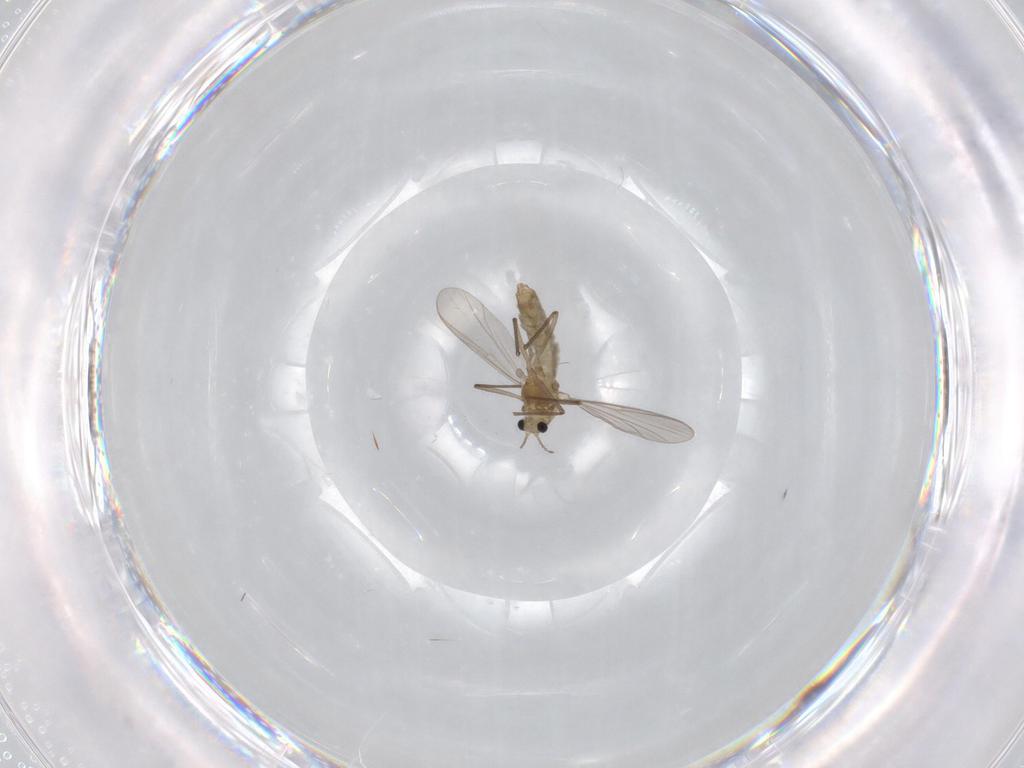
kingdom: Animalia
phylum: Arthropoda
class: Insecta
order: Diptera
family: Chironomidae
